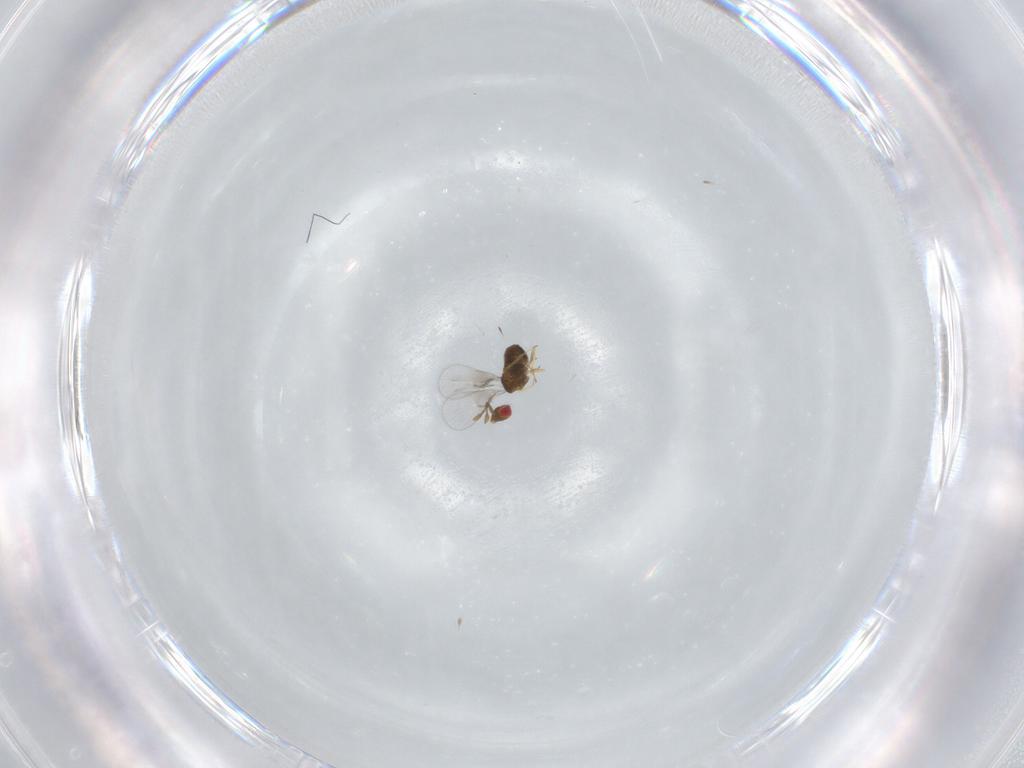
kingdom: Animalia
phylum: Arthropoda
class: Insecta
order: Hymenoptera
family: Trichogrammatidae
